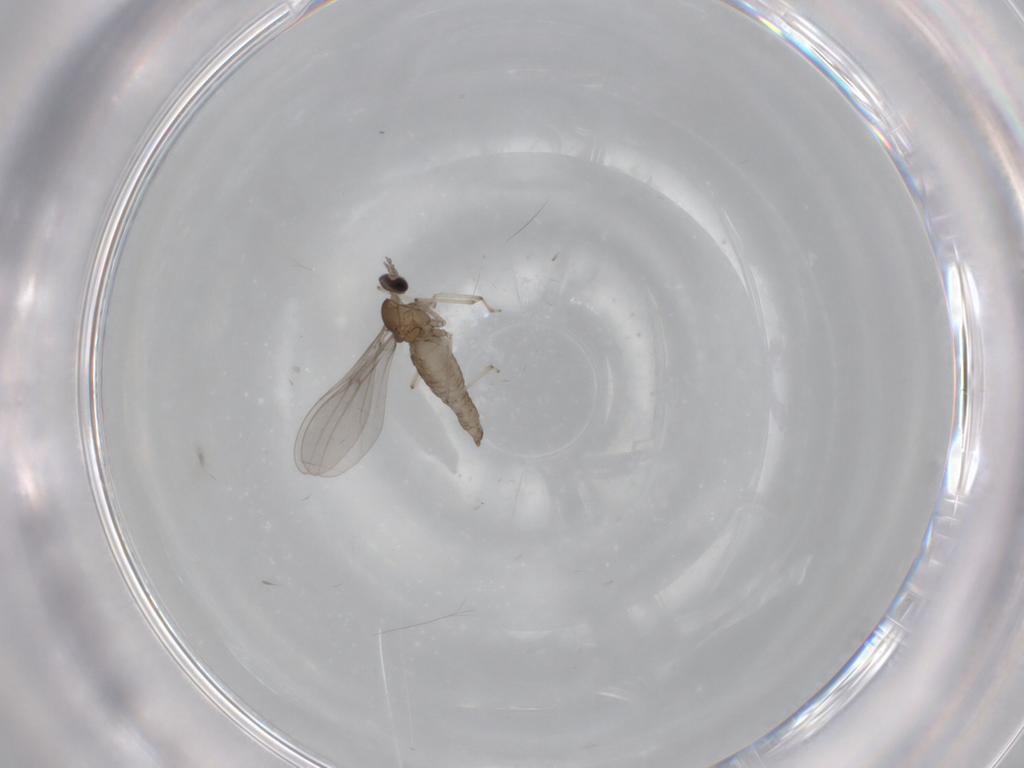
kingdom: Animalia
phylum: Arthropoda
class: Insecta
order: Diptera
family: Cecidomyiidae
